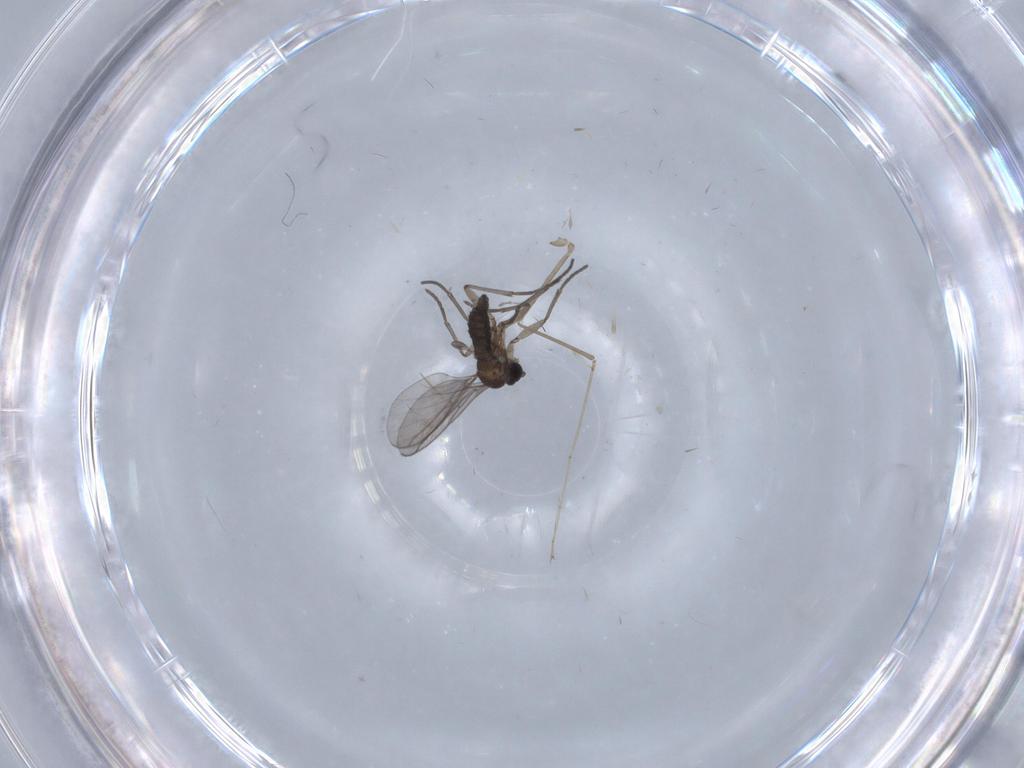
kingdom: Animalia
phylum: Arthropoda
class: Insecta
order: Diptera
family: Cecidomyiidae
